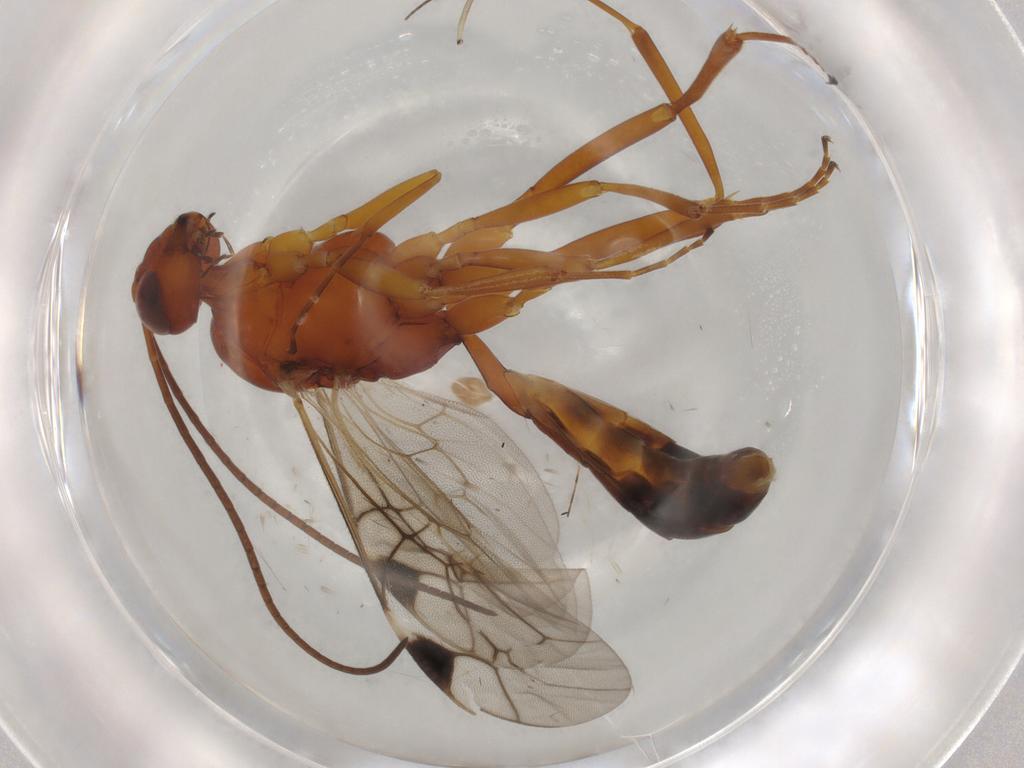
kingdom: Animalia
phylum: Arthropoda
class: Insecta
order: Hymenoptera
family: Ichneumonidae
